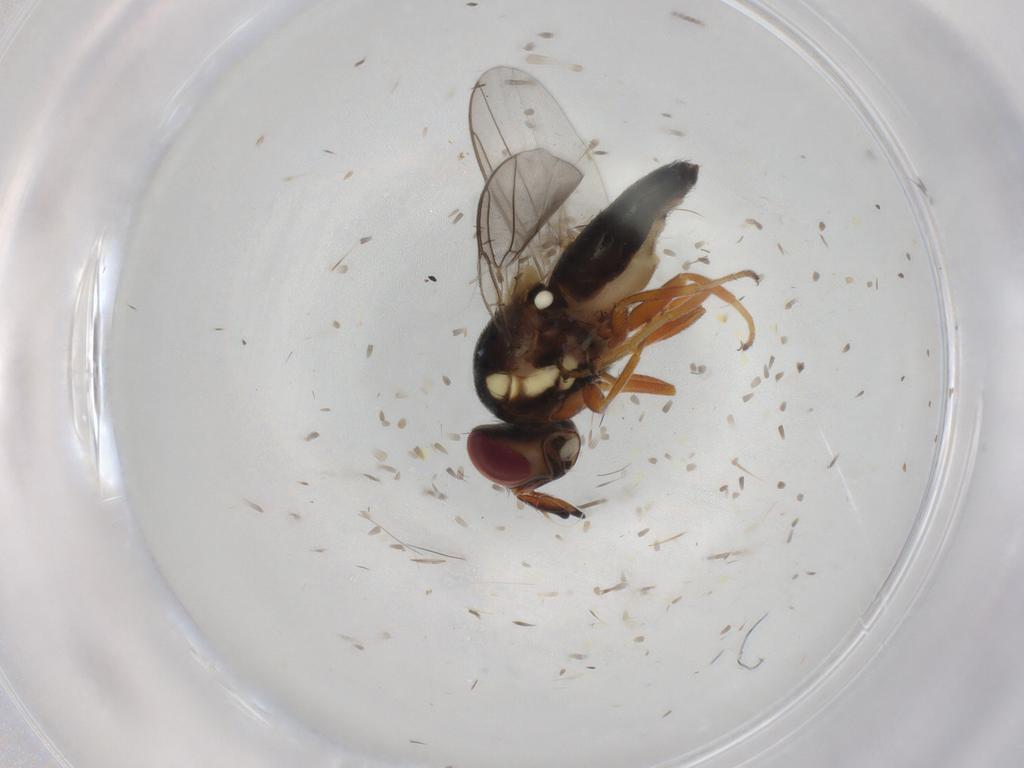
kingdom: Animalia
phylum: Arthropoda
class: Insecta
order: Diptera
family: Chloropidae
